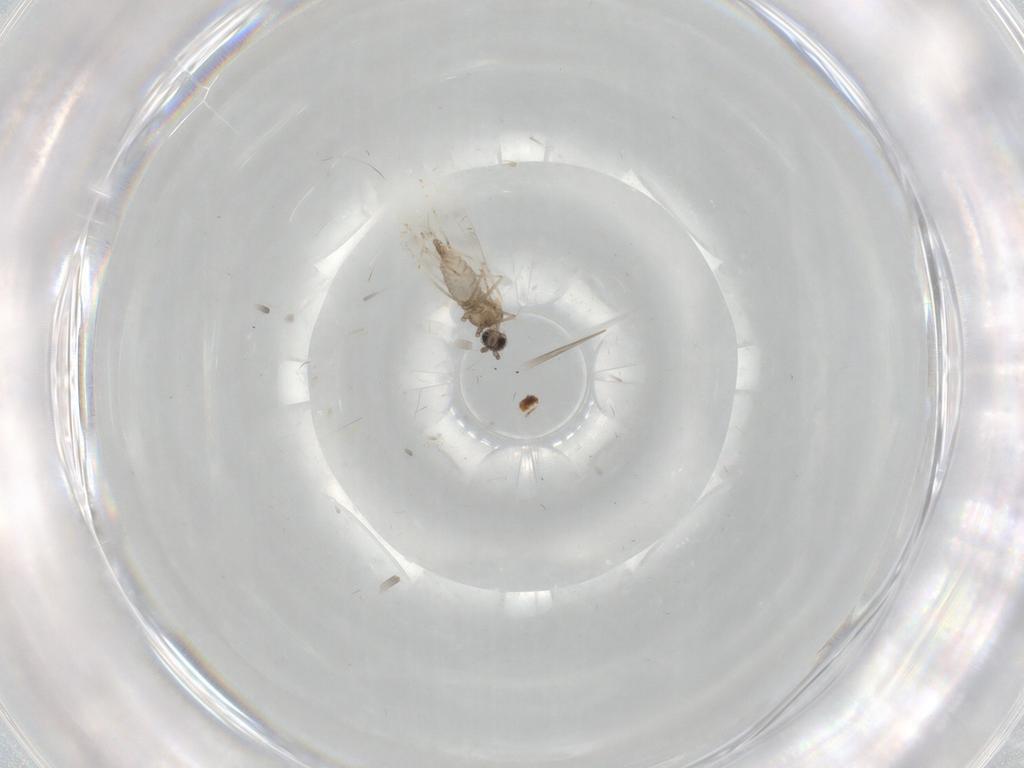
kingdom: Animalia
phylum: Arthropoda
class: Insecta
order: Diptera
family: Cecidomyiidae
